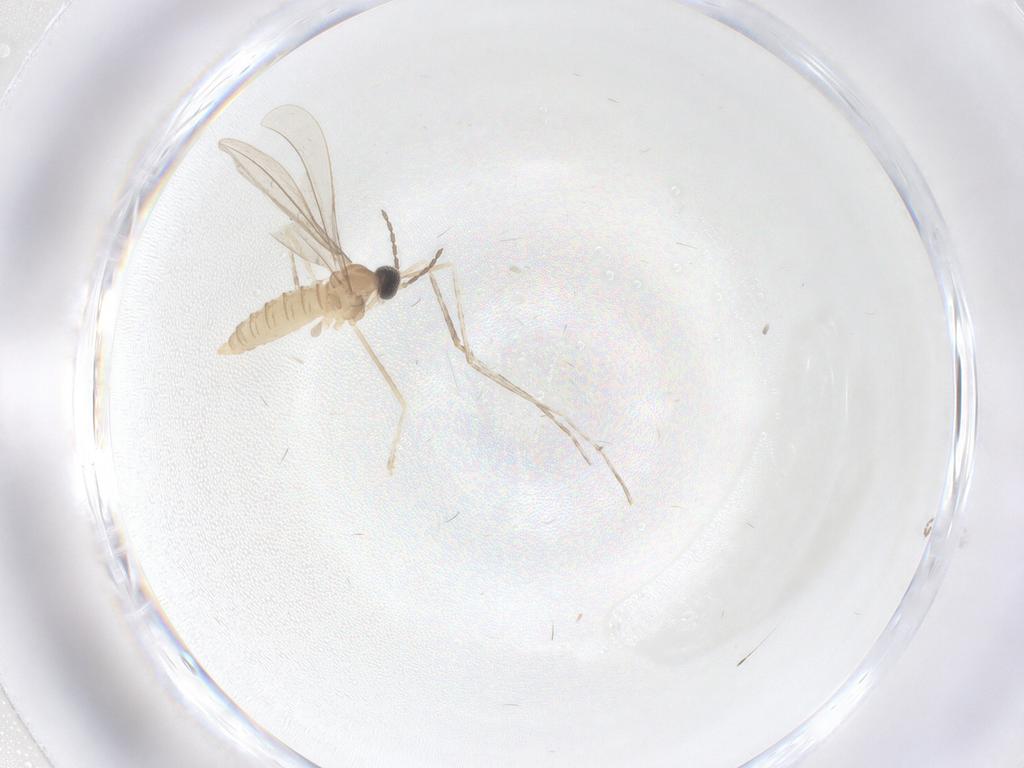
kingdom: Animalia
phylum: Arthropoda
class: Insecta
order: Diptera
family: Cecidomyiidae
